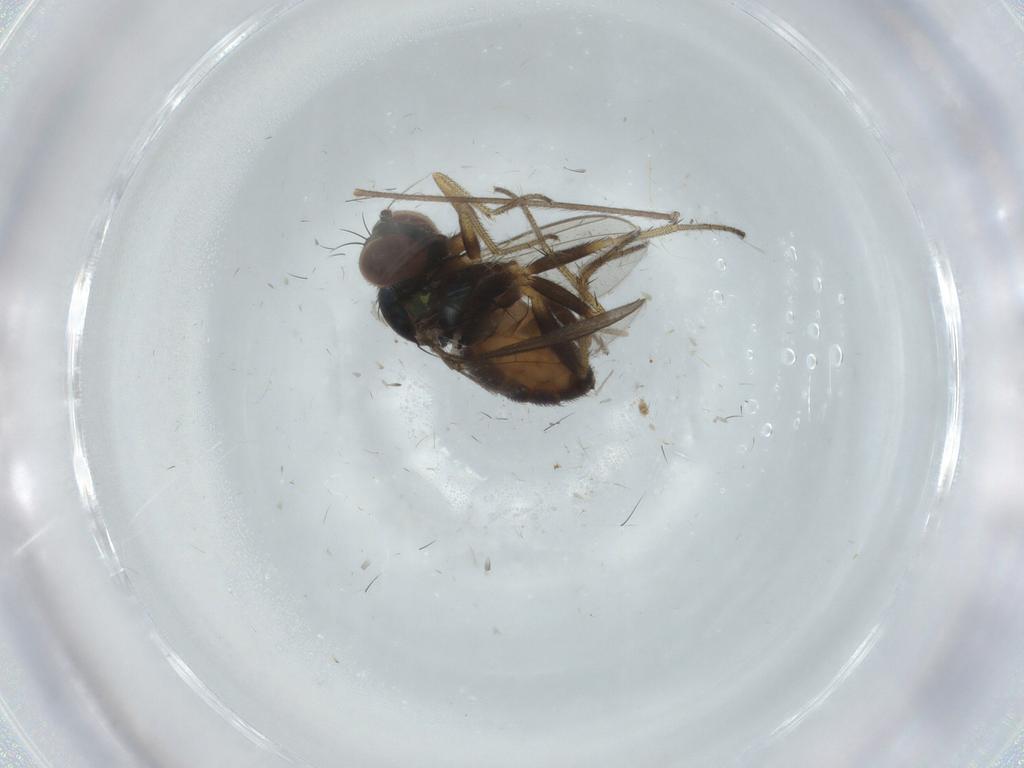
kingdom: Animalia
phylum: Arthropoda
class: Insecta
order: Diptera
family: Chironomidae
